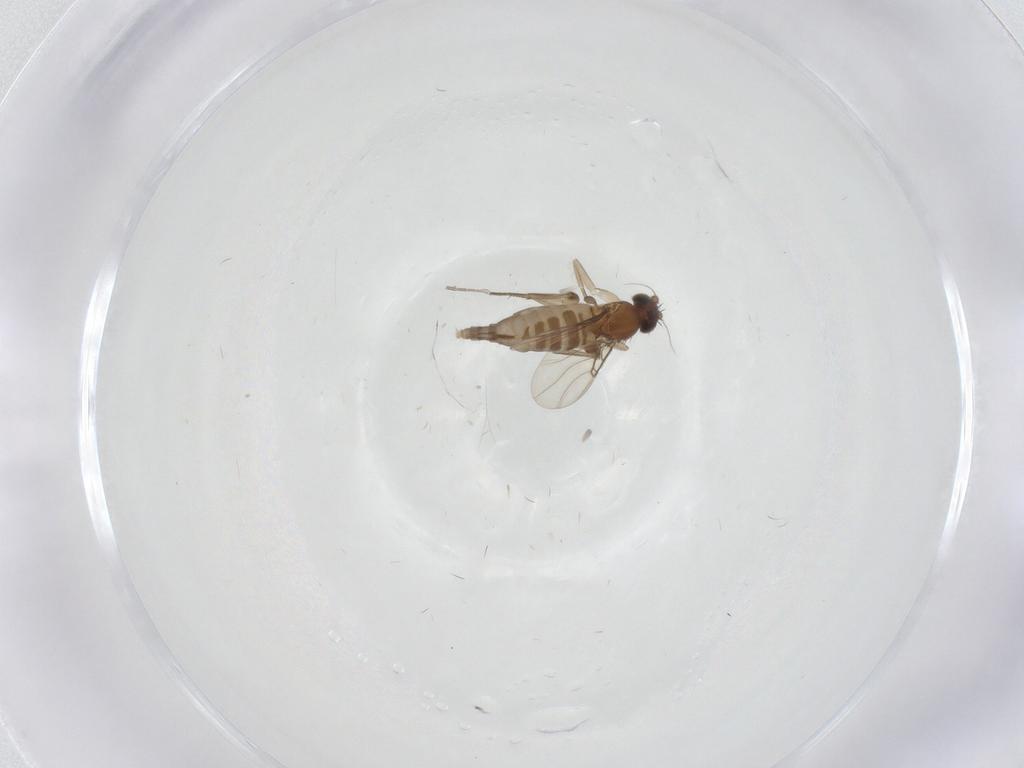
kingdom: Animalia
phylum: Arthropoda
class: Insecta
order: Diptera
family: Phoridae
